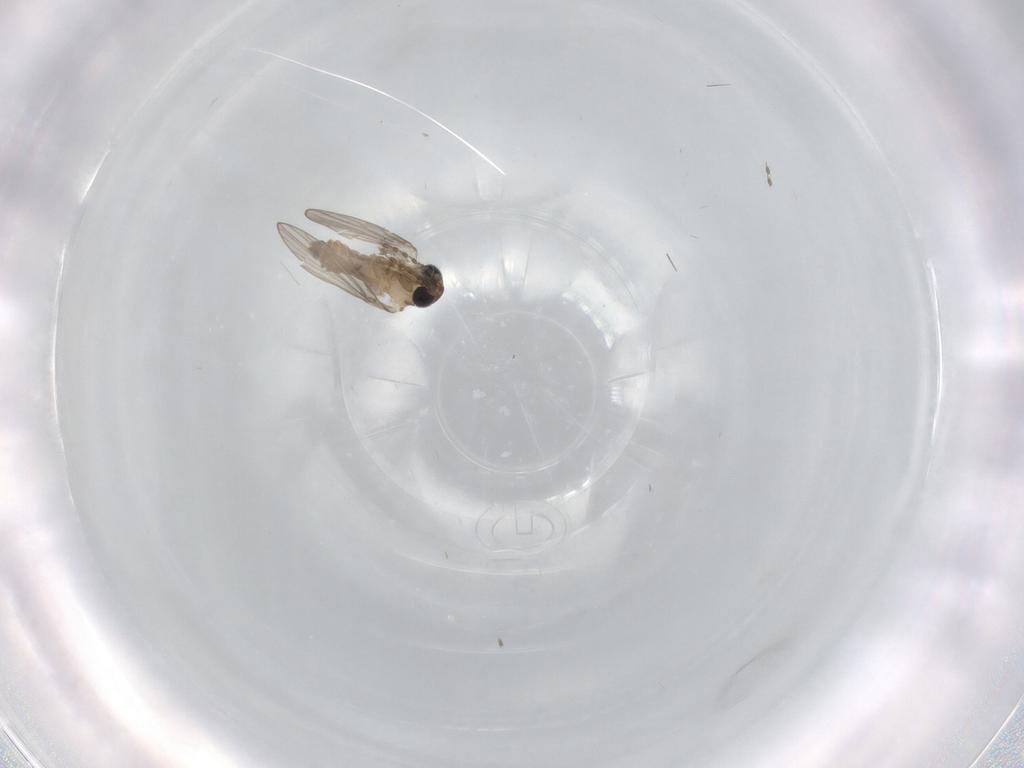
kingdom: Animalia
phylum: Arthropoda
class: Insecta
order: Diptera
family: Psychodidae
